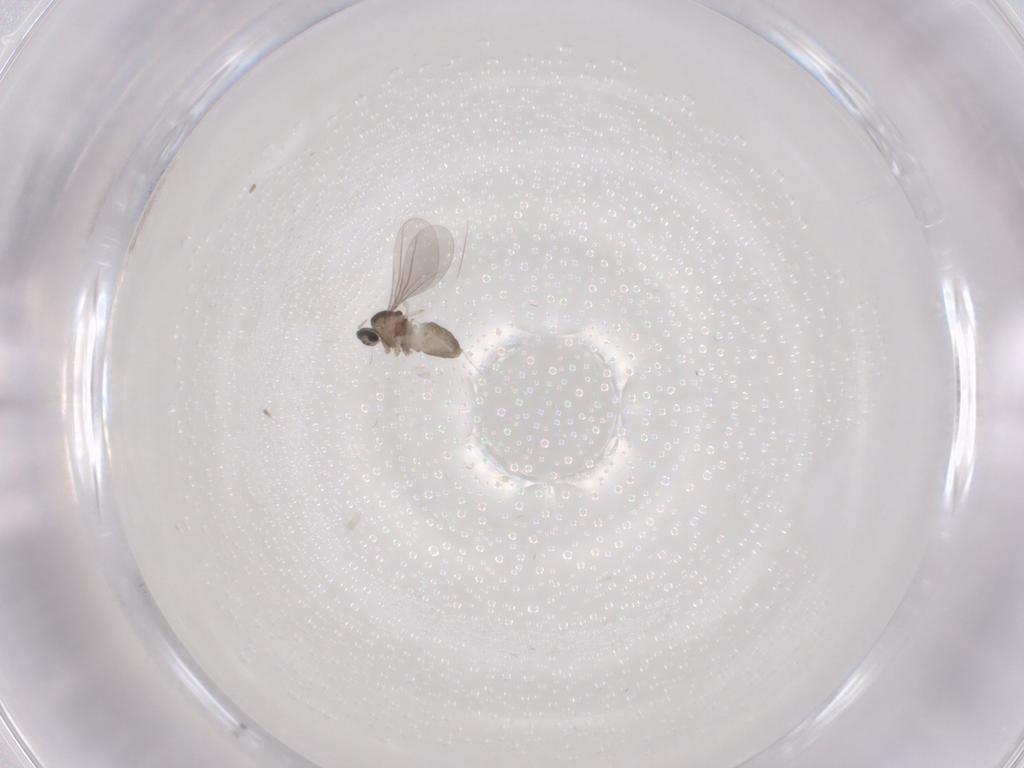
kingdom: Animalia
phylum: Arthropoda
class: Insecta
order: Diptera
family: Cecidomyiidae
